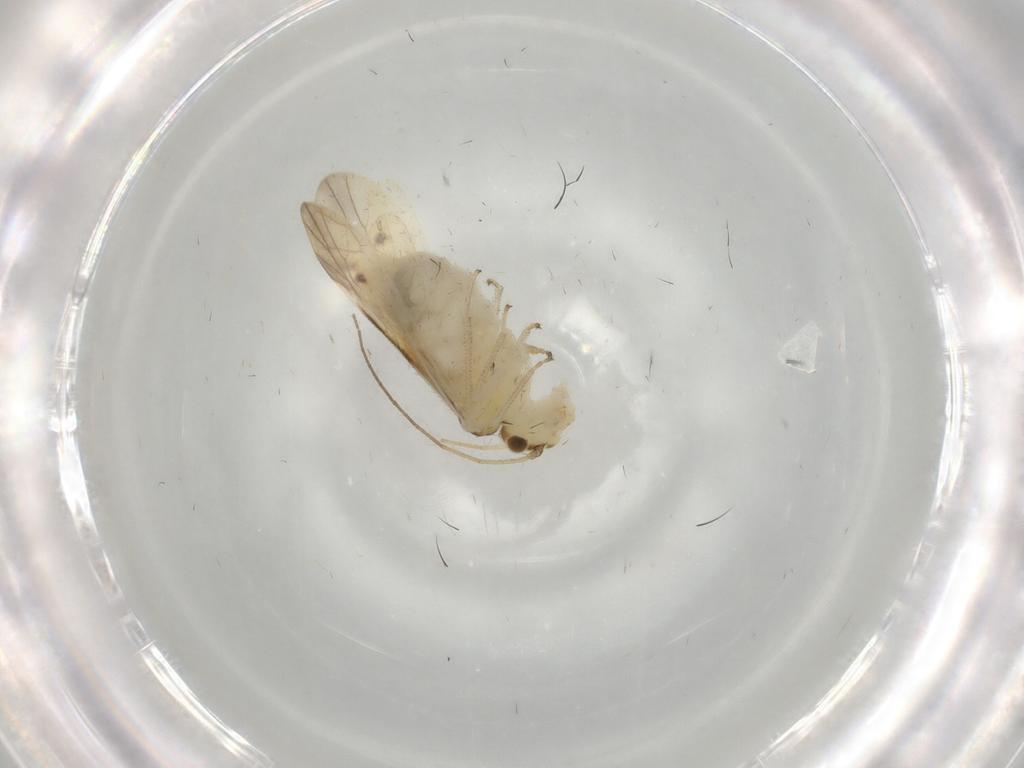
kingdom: Animalia
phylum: Arthropoda
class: Insecta
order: Psocodea
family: Caeciliusidae
